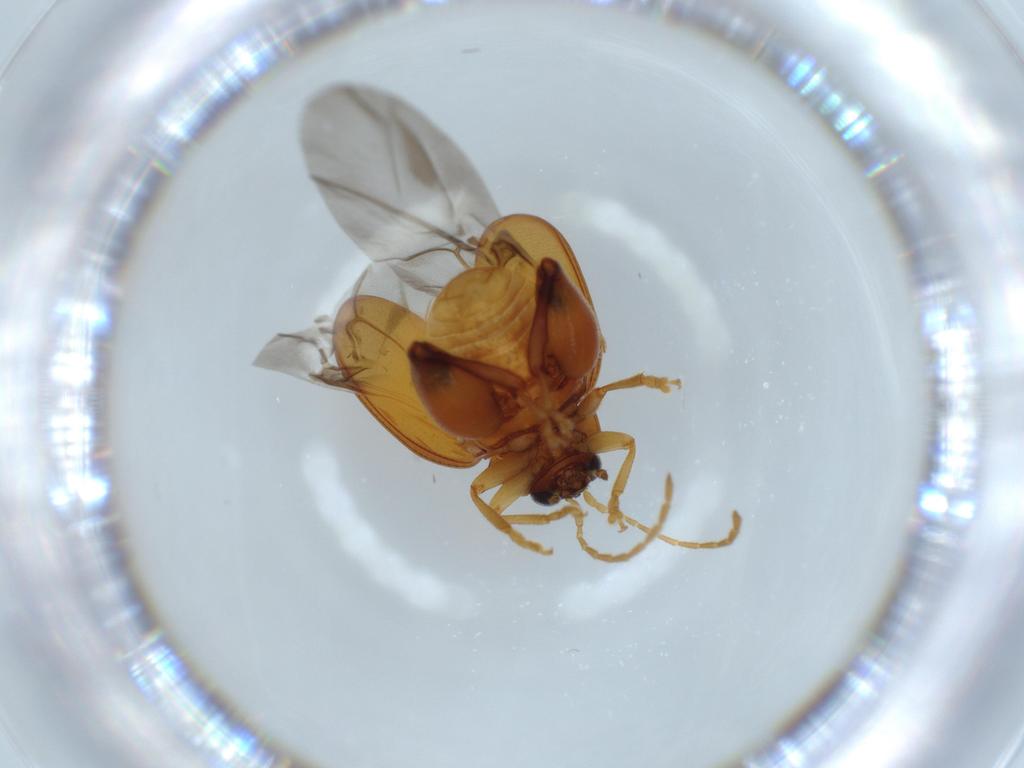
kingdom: Animalia
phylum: Arthropoda
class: Insecta
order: Coleoptera
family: Chrysomelidae
